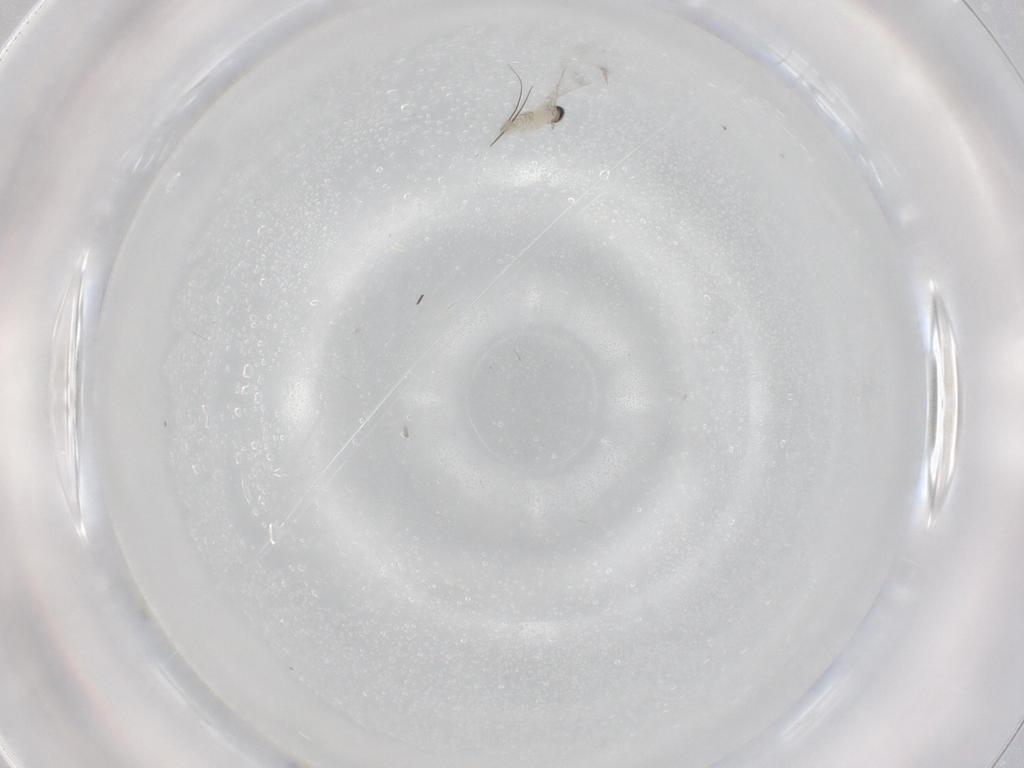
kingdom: Animalia
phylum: Arthropoda
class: Insecta
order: Diptera
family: Cecidomyiidae
